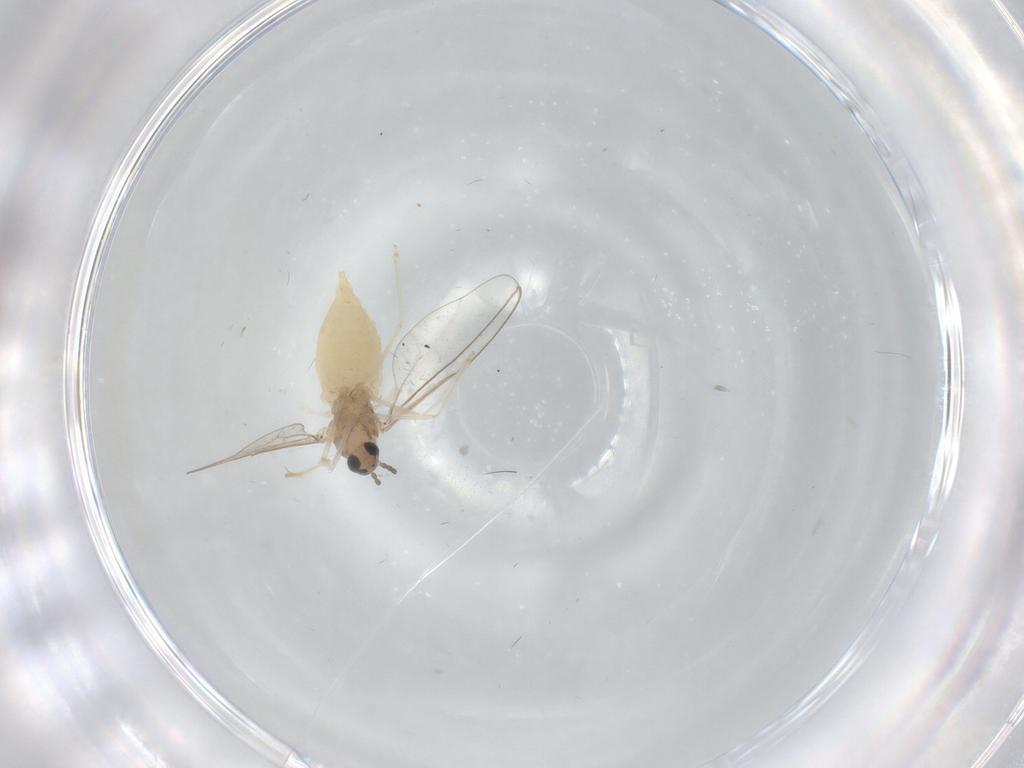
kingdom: Animalia
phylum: Arthropoda
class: Insecta
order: Diptera
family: Cecidomyiidae
